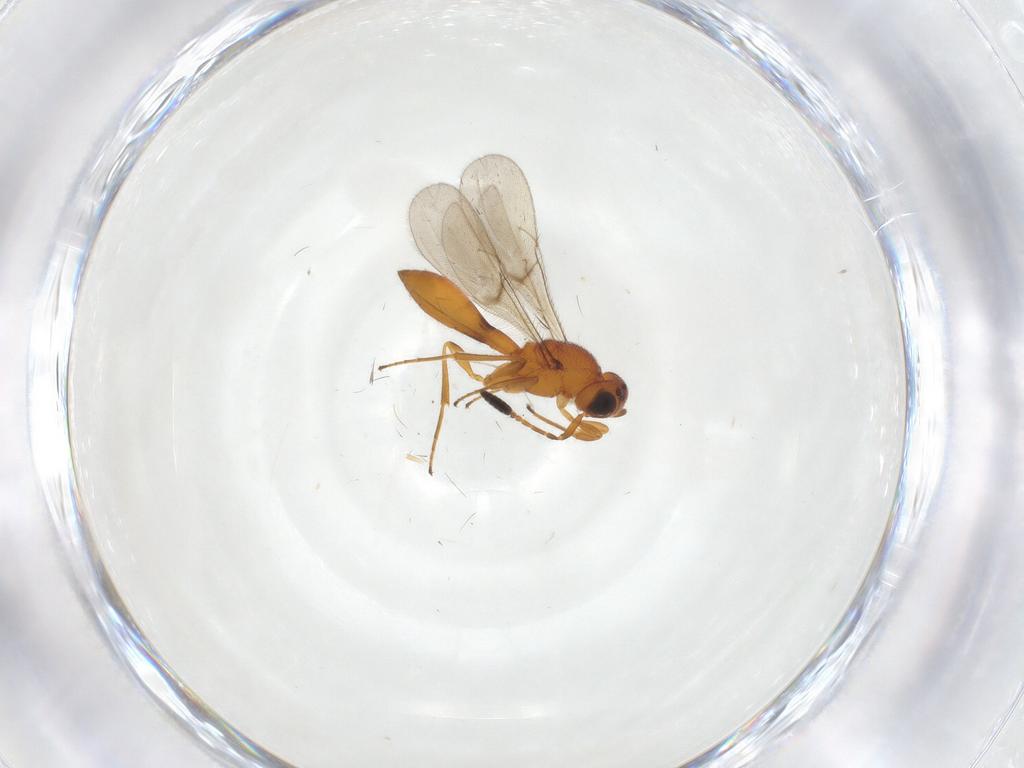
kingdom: Animalia
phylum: Arthropoda
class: Insecta
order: Hymenoptera
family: Scelionidae
